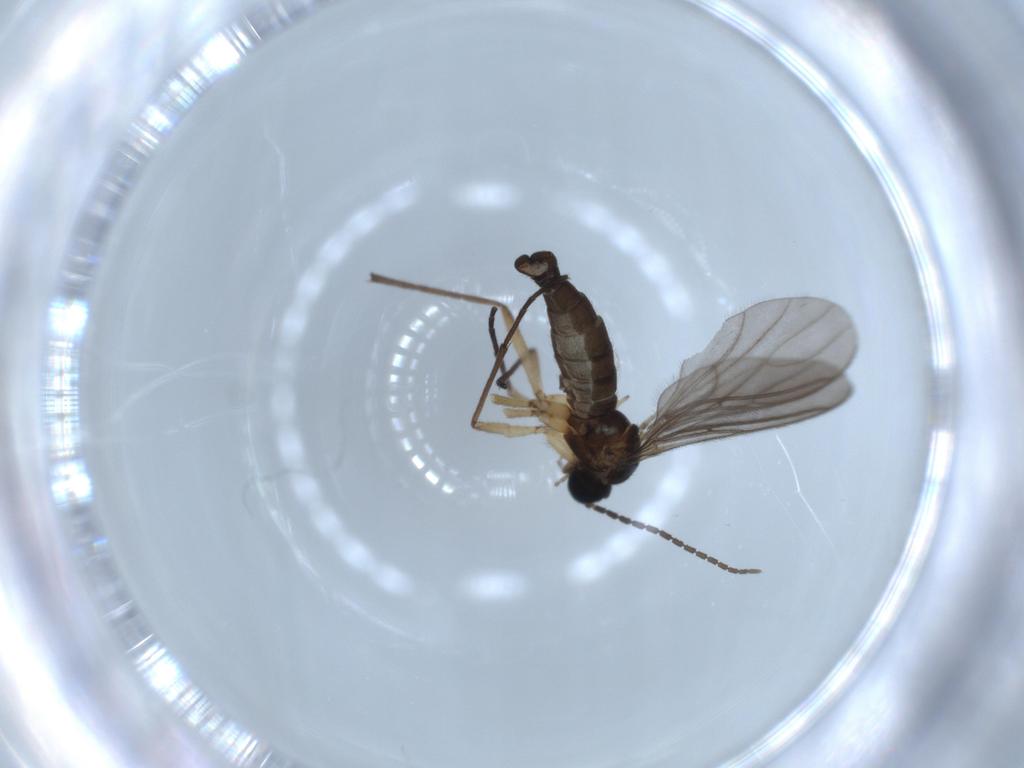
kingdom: Animalia
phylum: Arthropoda
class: Insecta
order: Diptera
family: Sciaridae
